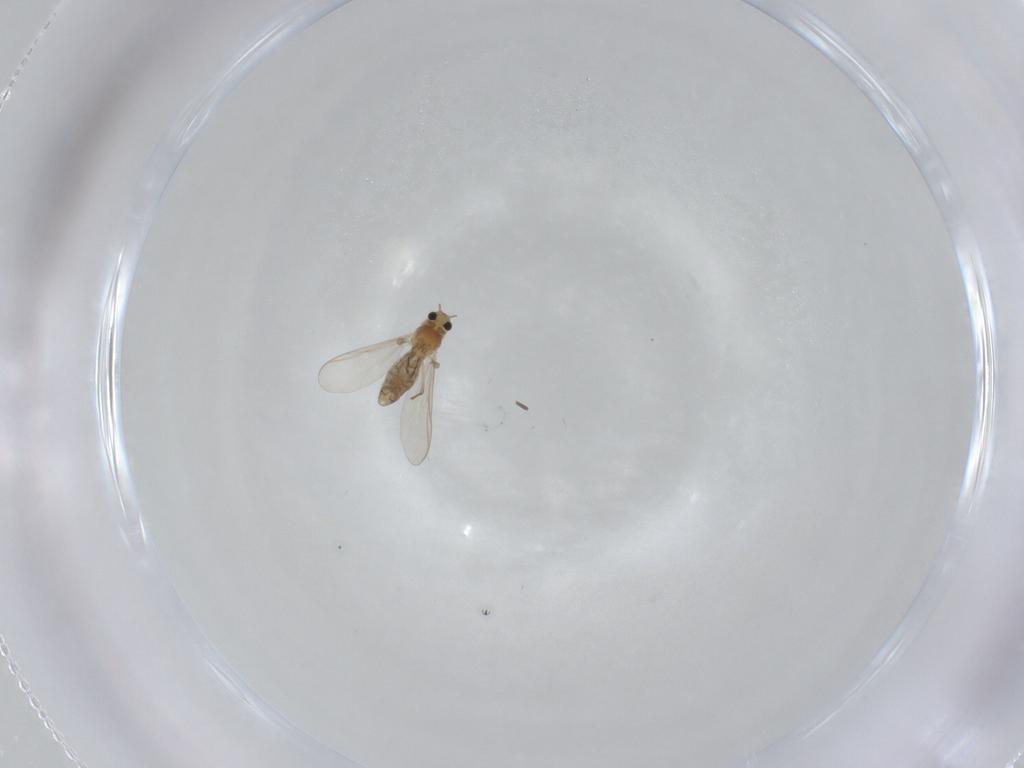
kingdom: Animalia
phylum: Arthropoda
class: Insecta
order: Diptera
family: Chironomidae
